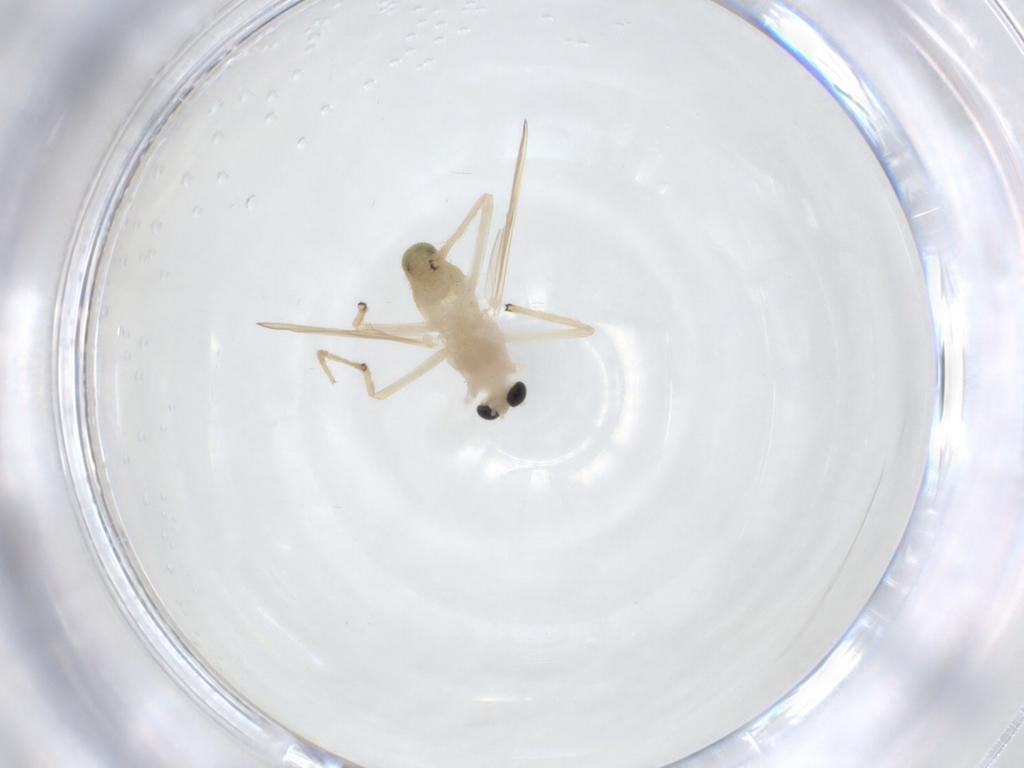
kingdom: Animalia
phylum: Arthropoda
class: Insecta
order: Diptera
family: Chironomidae
